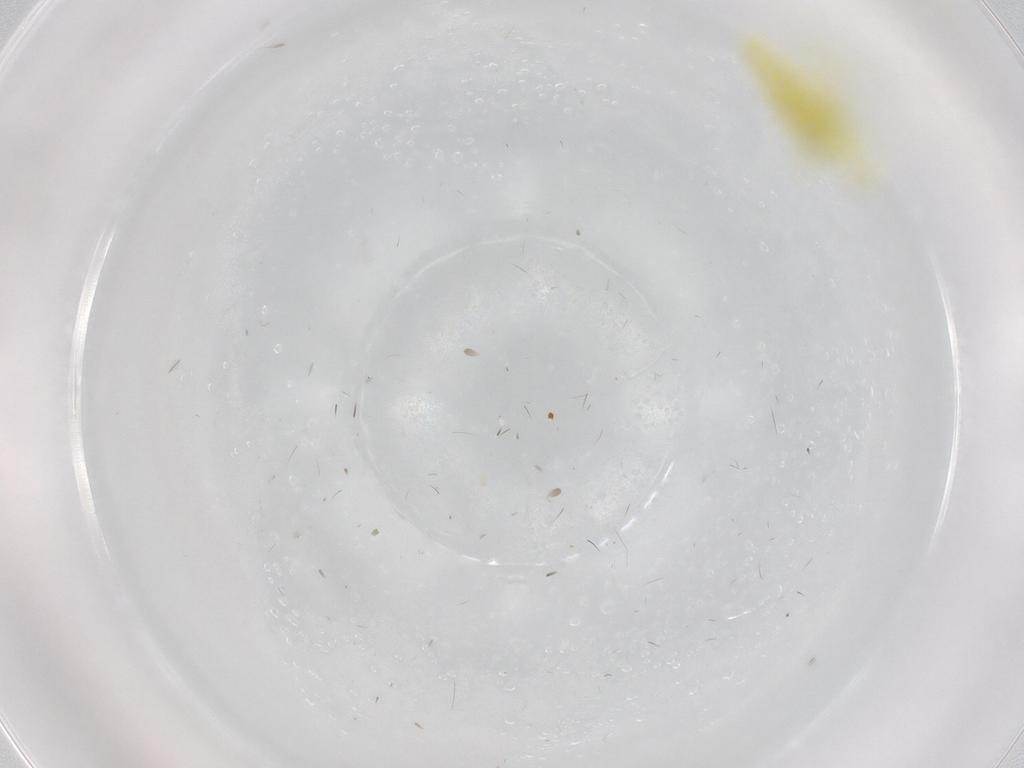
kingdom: Animalia
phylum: Arthropoda
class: Insecta
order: Hemiptera
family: Cicadellidae
